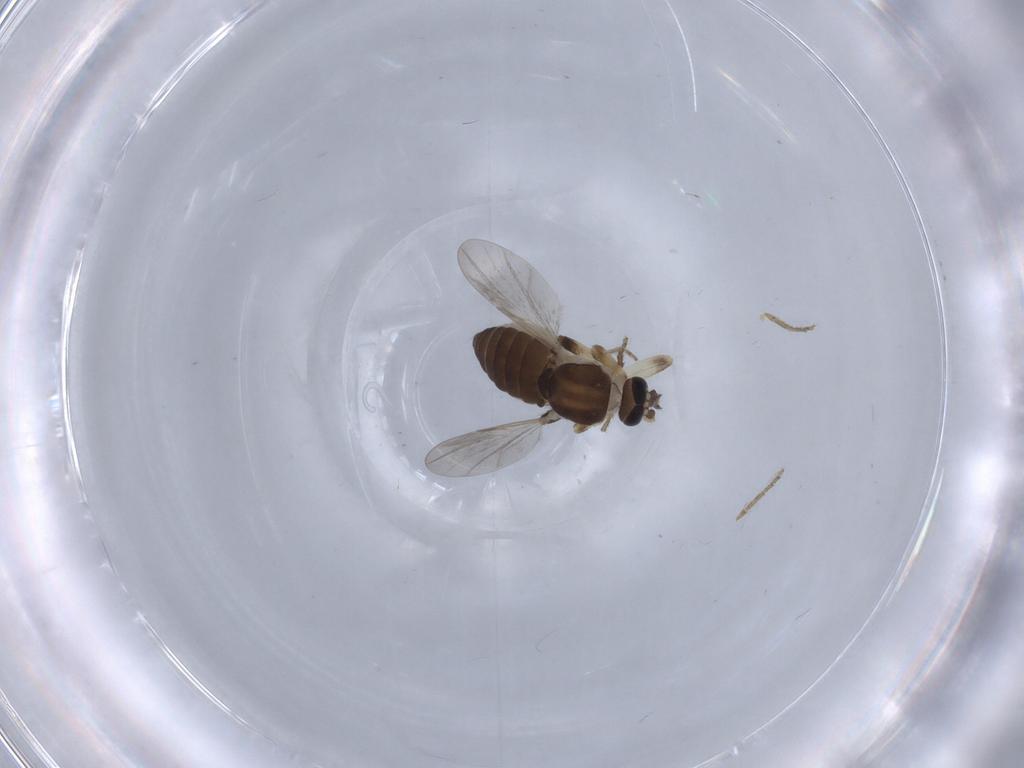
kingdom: Animalia
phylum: Arthropoda
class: Insecta
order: Diptera
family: Ceratopogonidae
